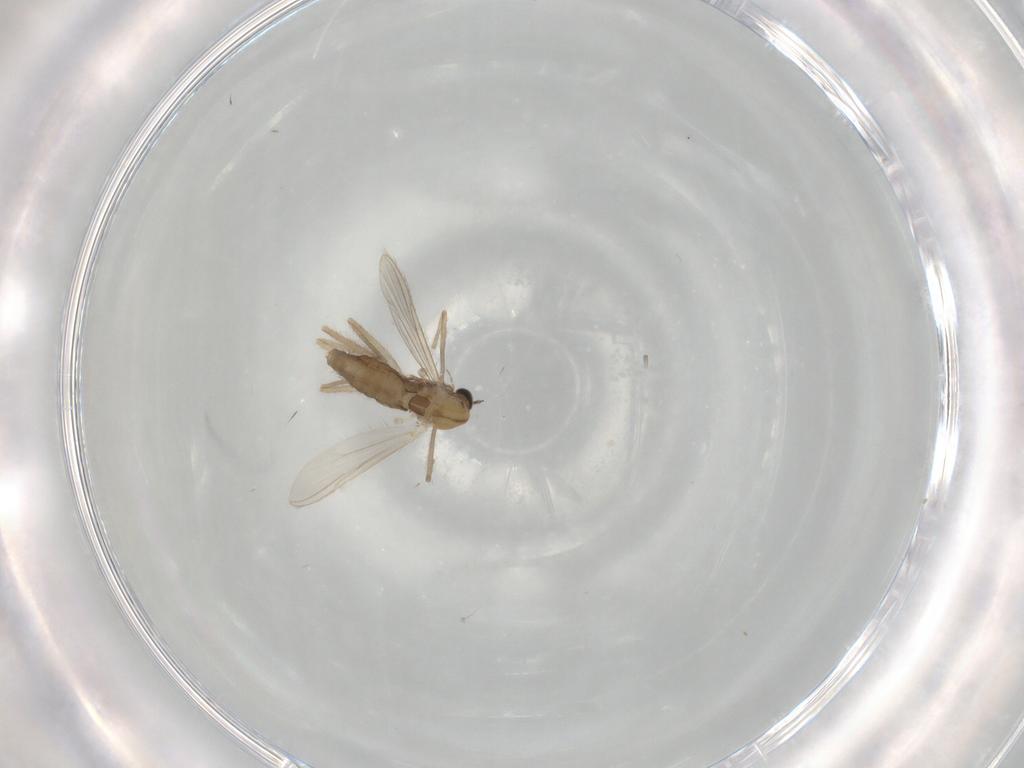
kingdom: Animalia
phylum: Arthropoda
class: Insecta
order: Diptera
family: Chironomidae
